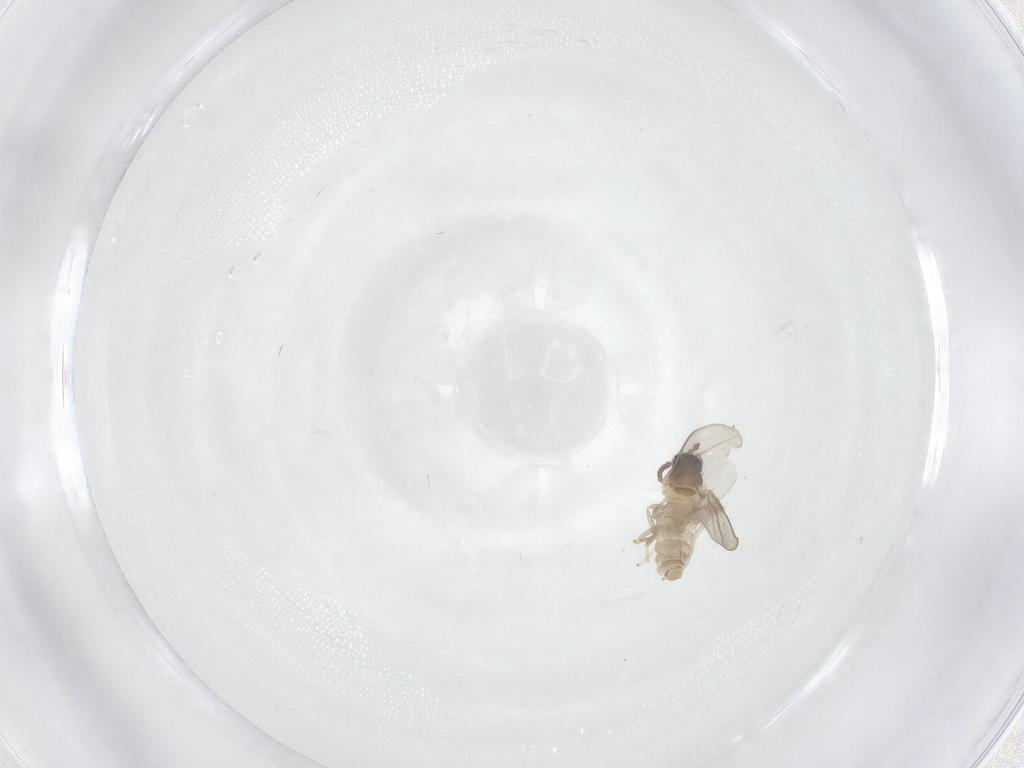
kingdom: Animalia
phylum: Arthropoda
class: Insecta
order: Diptera
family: Cecidomyiidae
